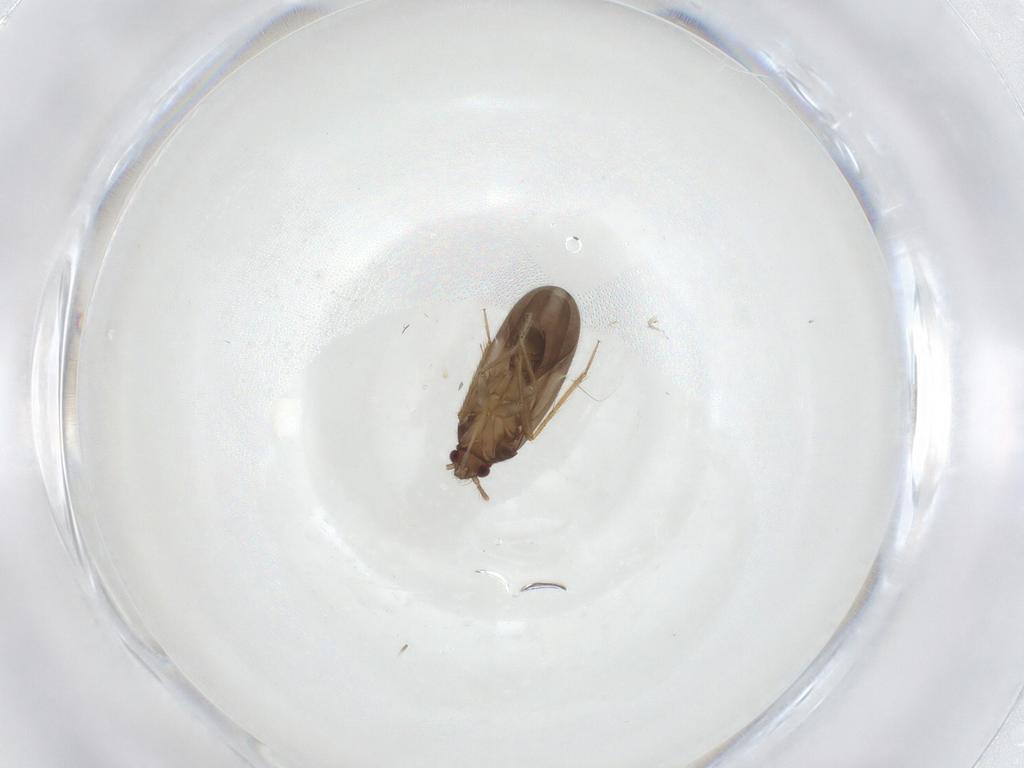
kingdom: Animalia
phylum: Arthropoda
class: Insecta
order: Hemiptera
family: Ceratocombidae
